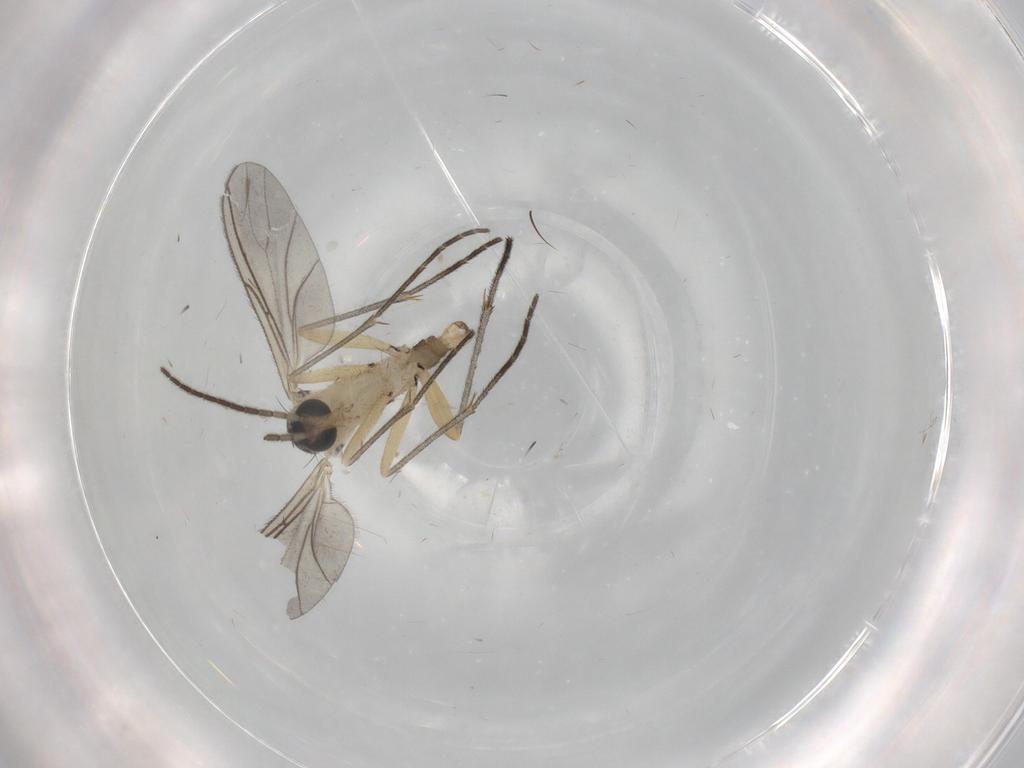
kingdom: Animalia
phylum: Arthropoda
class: Insecta
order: Diptera
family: Sciaridae
